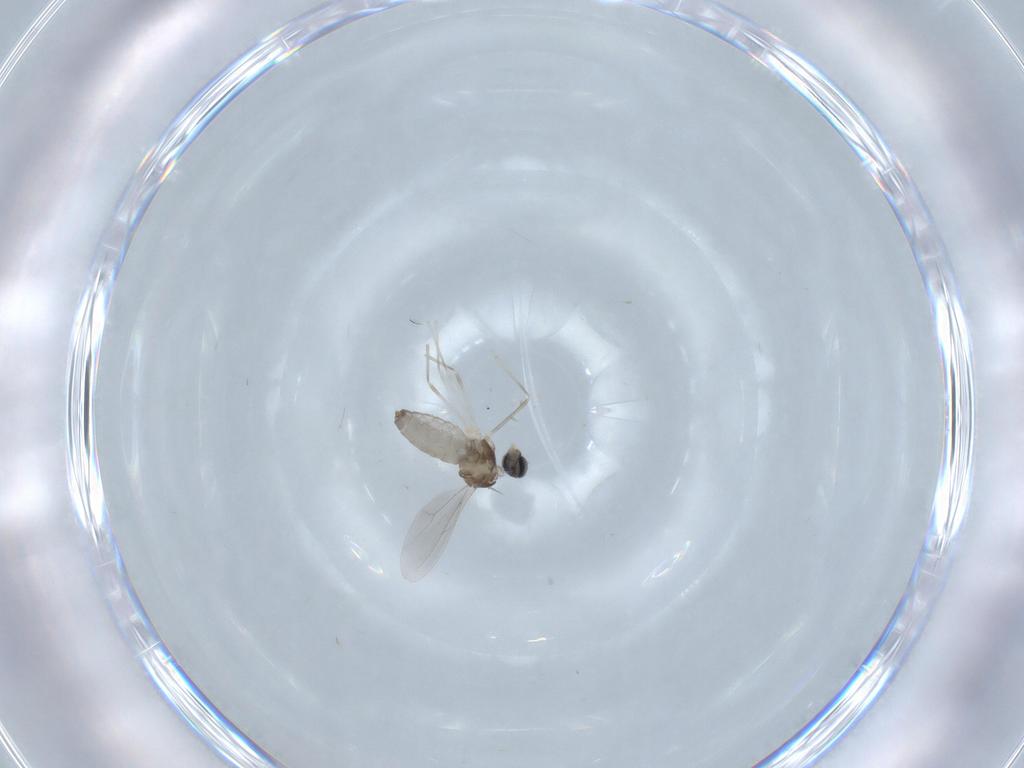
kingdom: Animalia
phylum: Arthropoda
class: Insecta
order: Diptera
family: Cecidomyiidae
